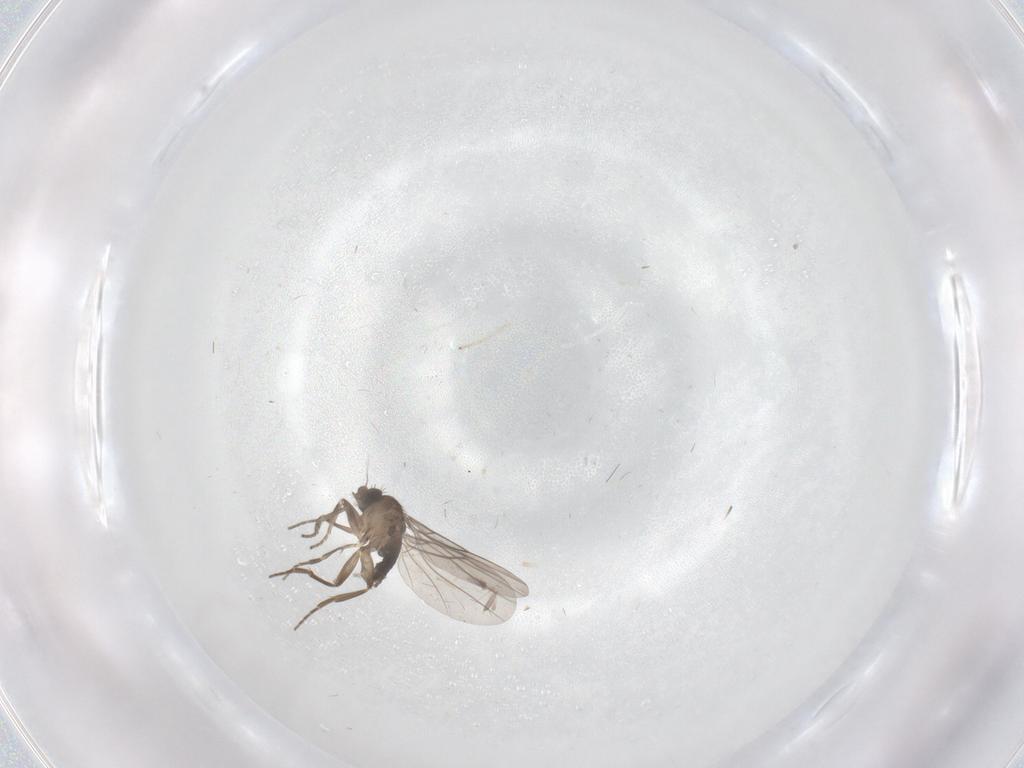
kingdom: Animalia
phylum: Arthropoda
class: Insecta
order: Diptera
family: Cecidomyiidae
